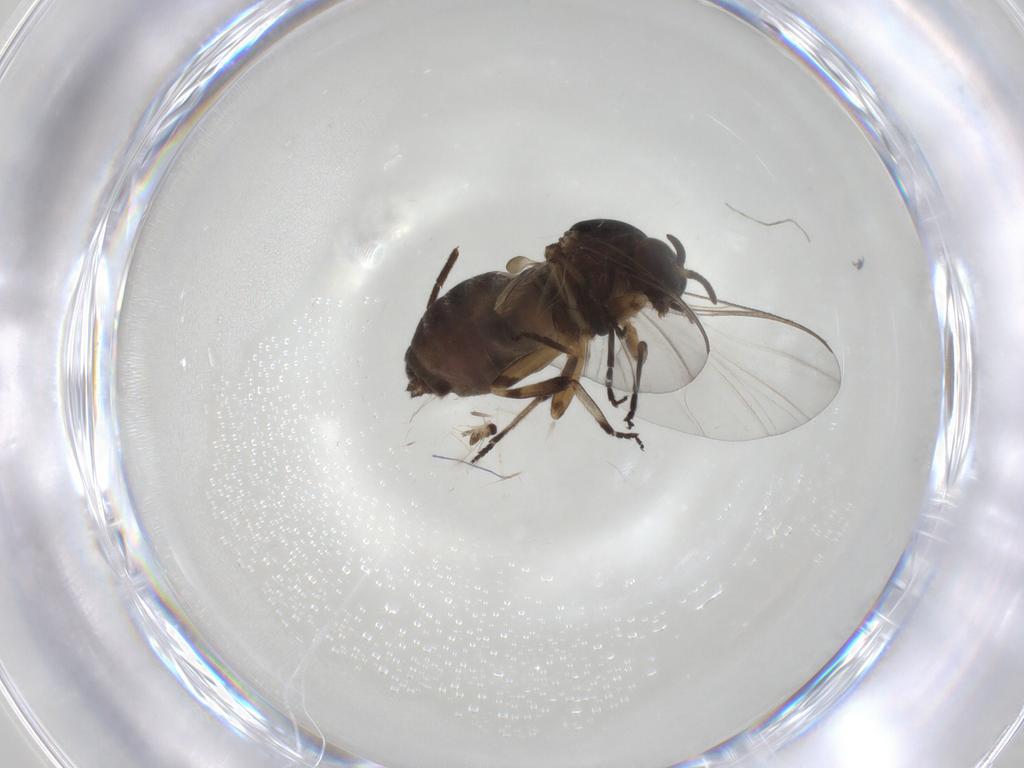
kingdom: Animalia
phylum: Arthropoda
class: Insecta
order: Diptera
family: Simuliidae
